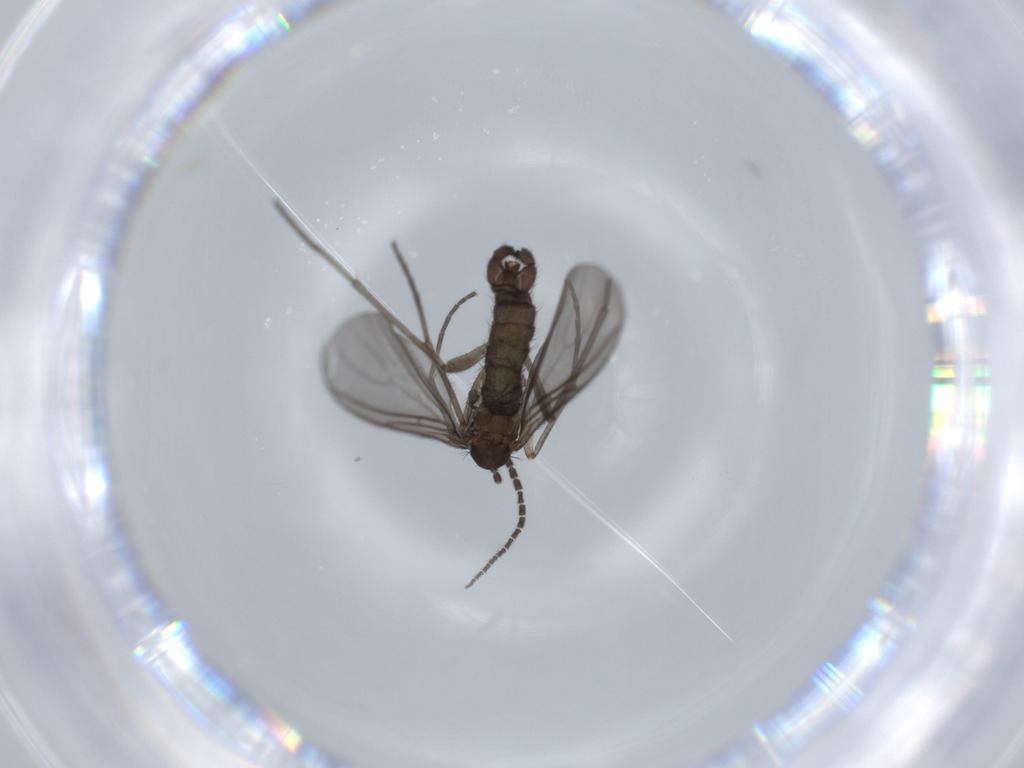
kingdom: Animalia
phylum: Arthropoda
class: Insecta
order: Diptera
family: Sciaridae
